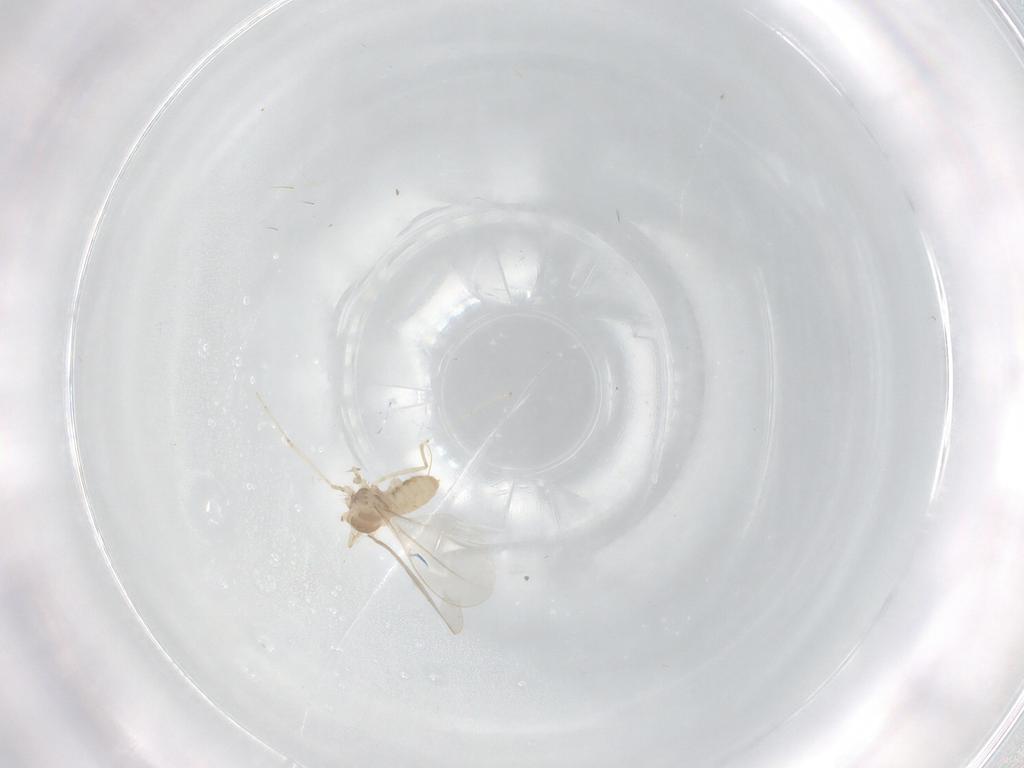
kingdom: Animalia
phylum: Arthropoda
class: Insecta
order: Diptera
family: Cecidomyiidae
